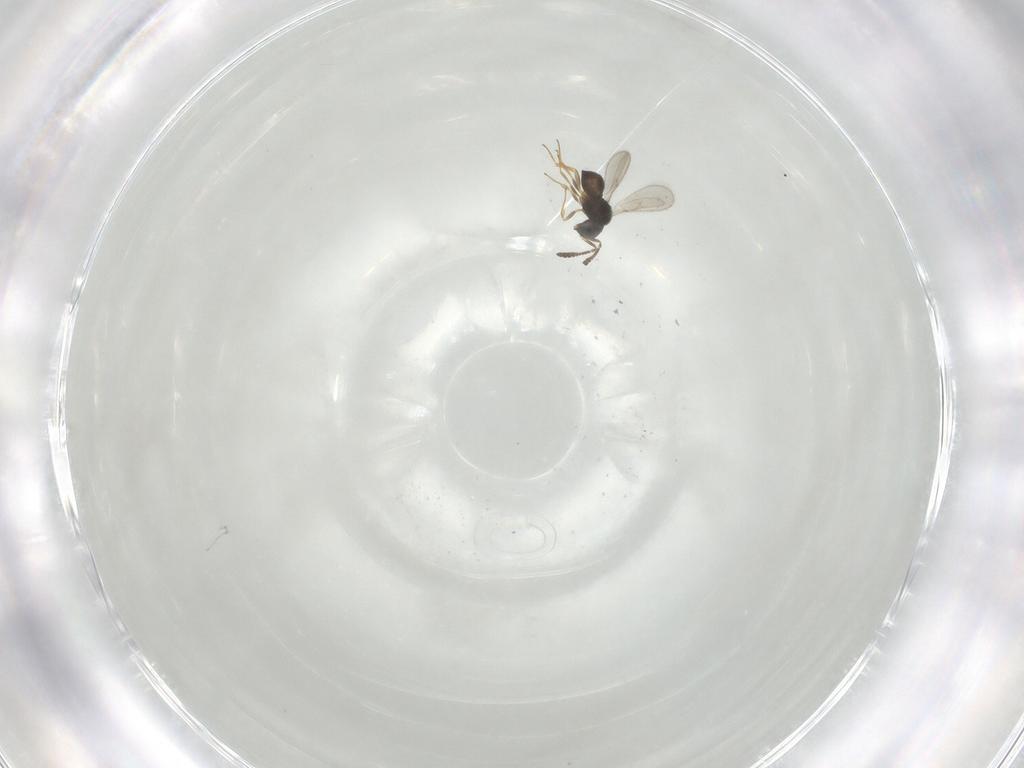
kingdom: Animalia
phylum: Arthropoda
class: Insecta
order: Hymenoptera
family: Scelionidae
